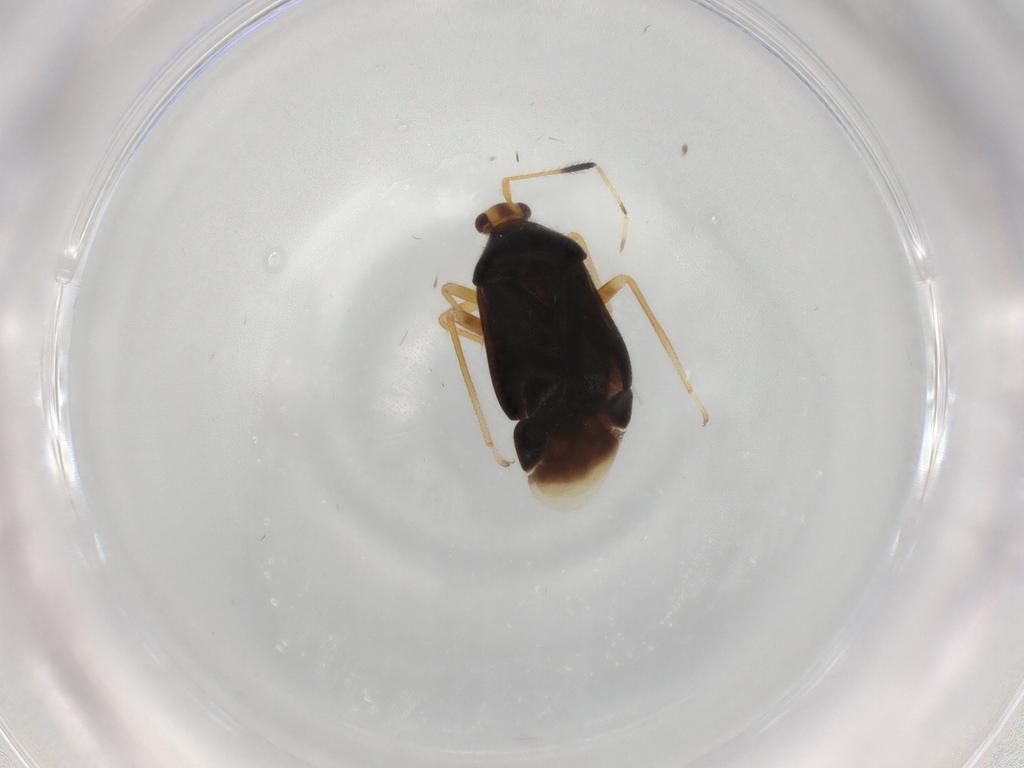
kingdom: Animalia
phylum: Arthropoda
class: Insecta
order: Hemiptera
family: Miridae
